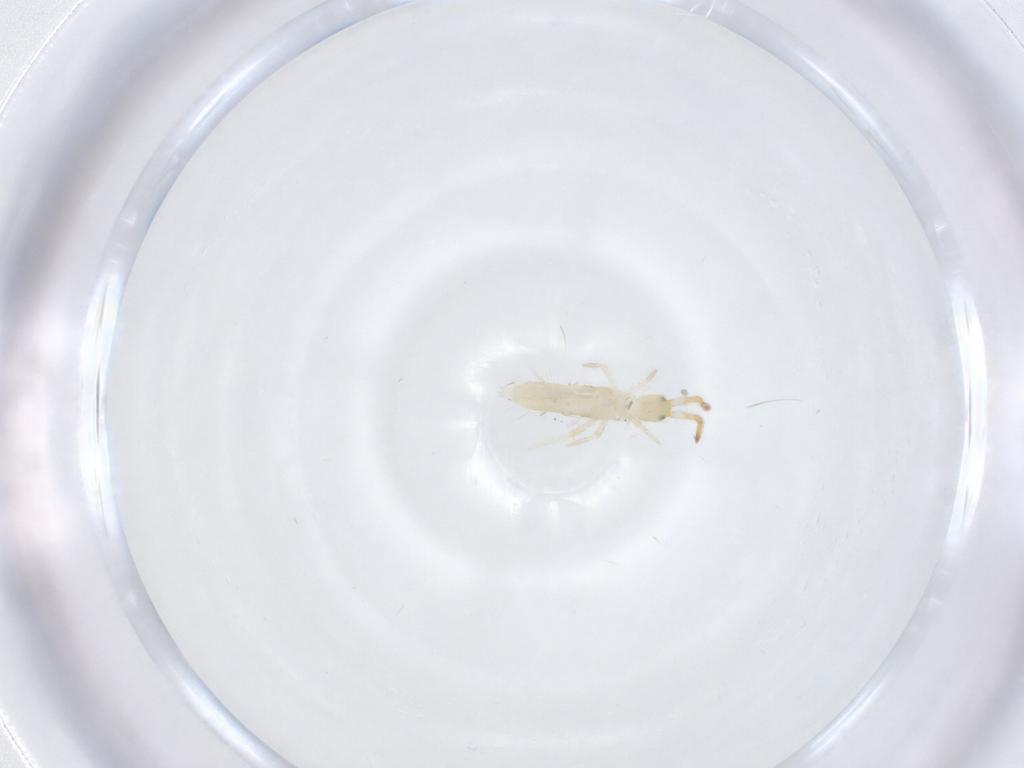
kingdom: Animalia
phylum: Arthropoda
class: Collembola
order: Entomobryomorpha
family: Entomobryidae
